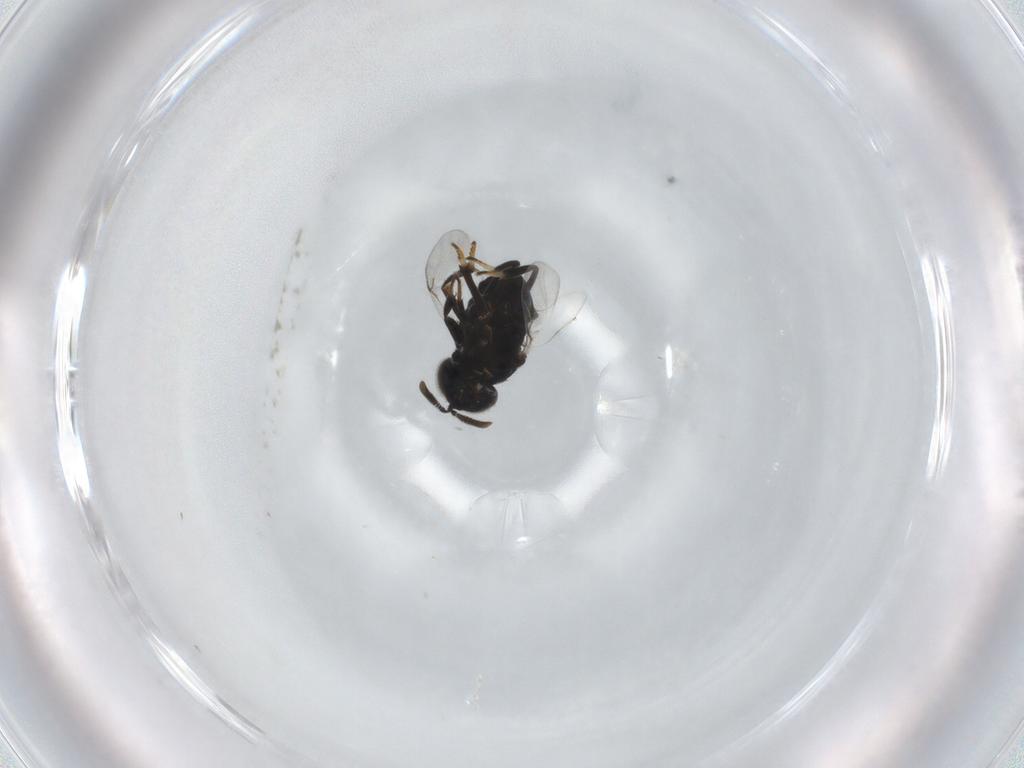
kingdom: Animalia
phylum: Arthropoda
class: Insecta
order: Hymenoptera
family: Encyrtidae
